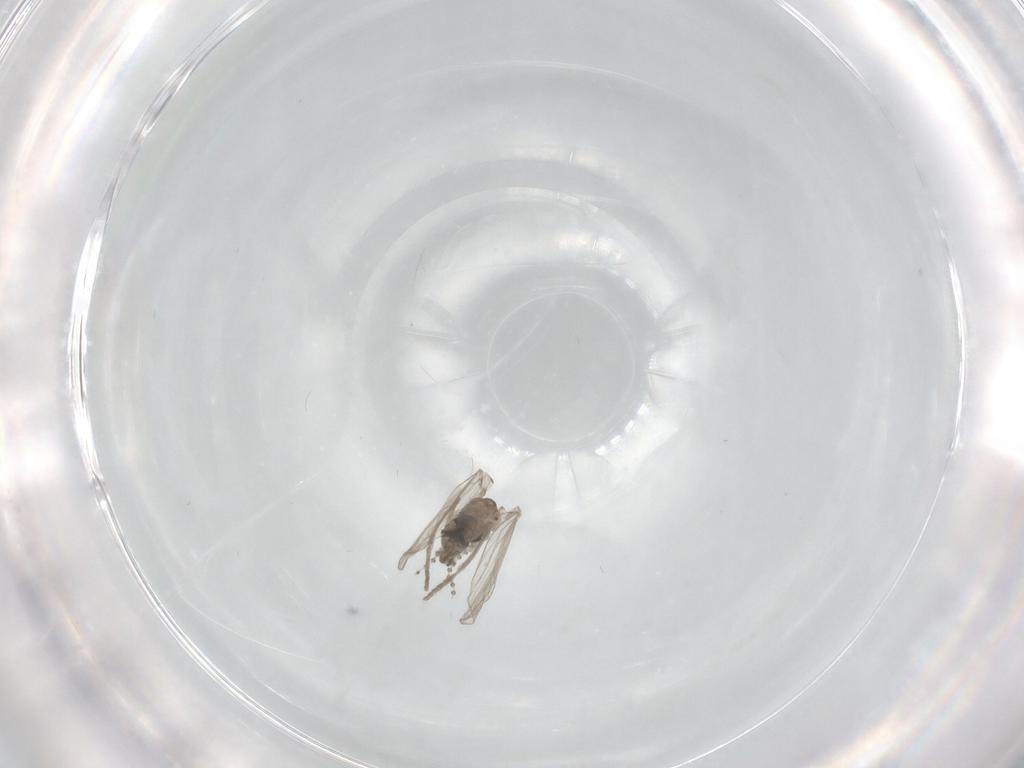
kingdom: Animalia
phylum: Arthropoda
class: Insecta
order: Diptera
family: Psychodidae
